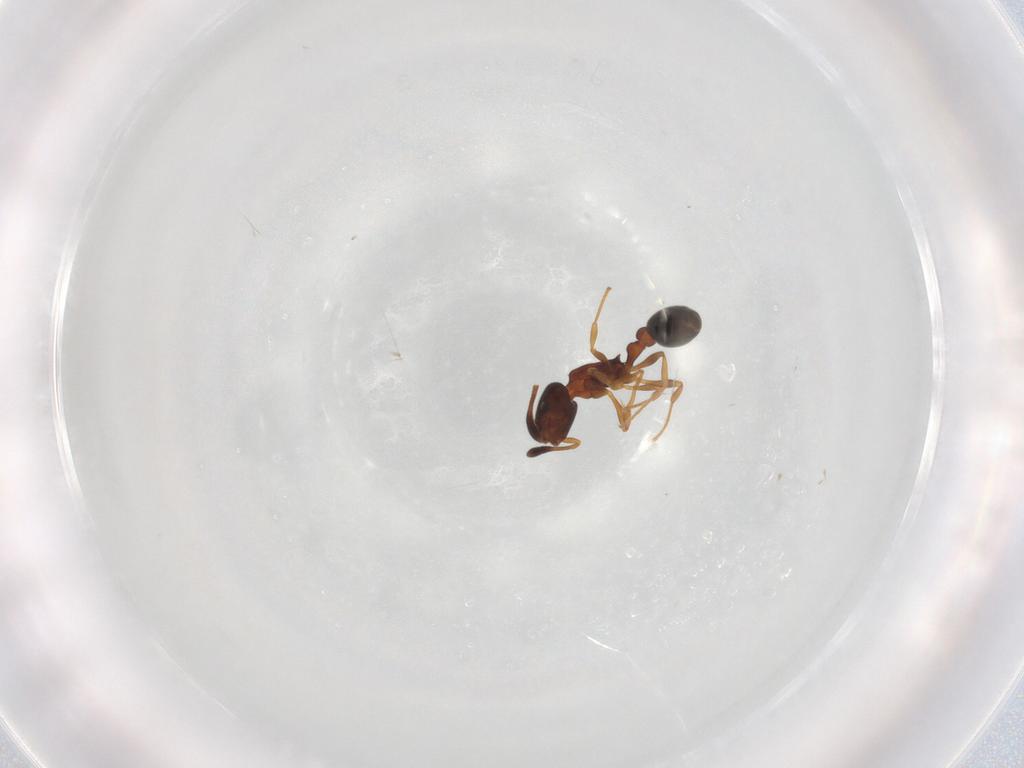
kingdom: Animalia
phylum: Arthropoda
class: Insecta
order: Hymenoptera
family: Formicidae
